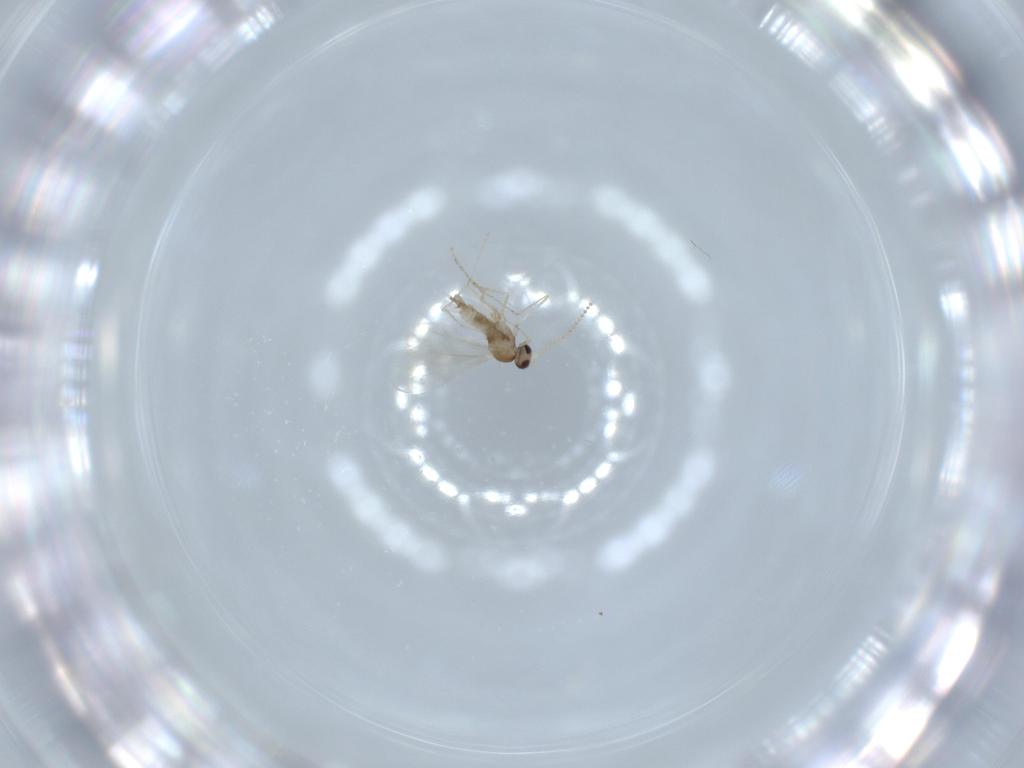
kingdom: Animalia
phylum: Arthropoda
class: Insecta
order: Diptera
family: Cecidomyiidae
